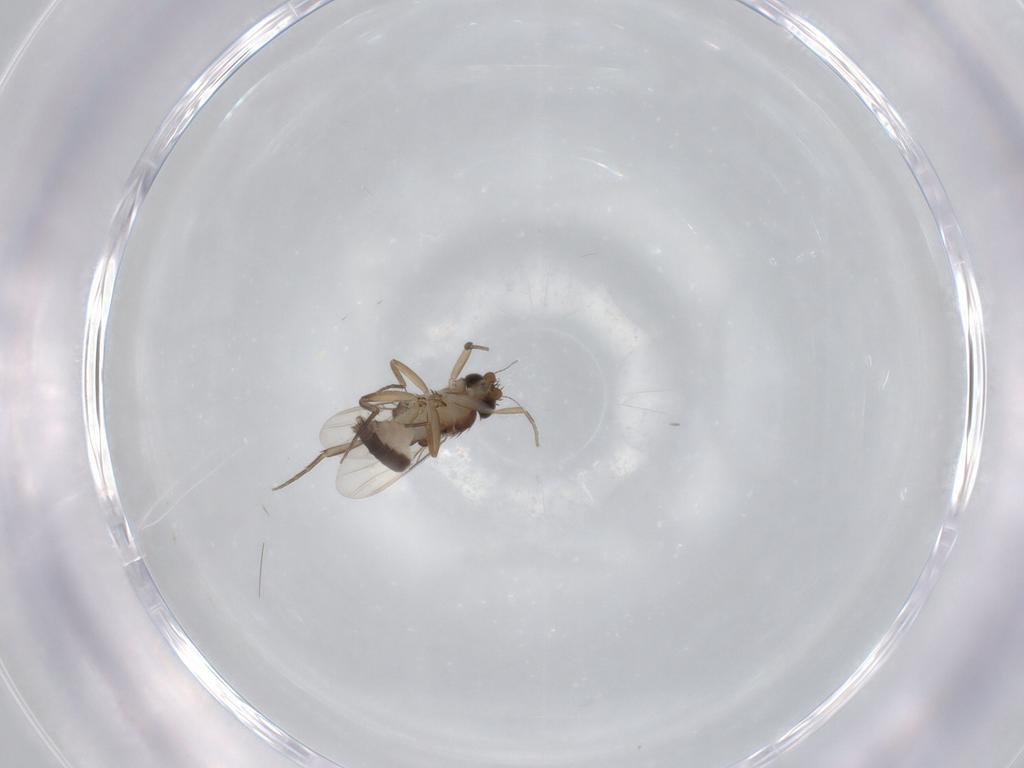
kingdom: Animalia
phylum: Arthropoda
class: Insecta
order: Diptera
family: Phoridae
